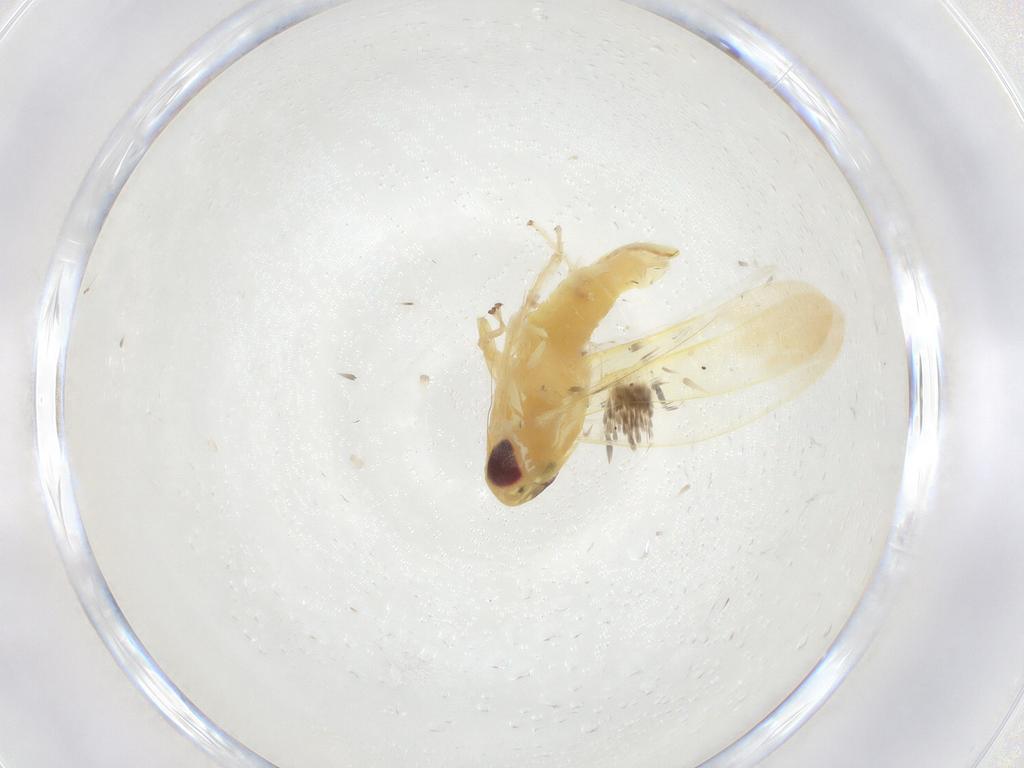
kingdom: Animalia
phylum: Arthropoda
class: Insecta
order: Hemiptera
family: Cicadellidae
